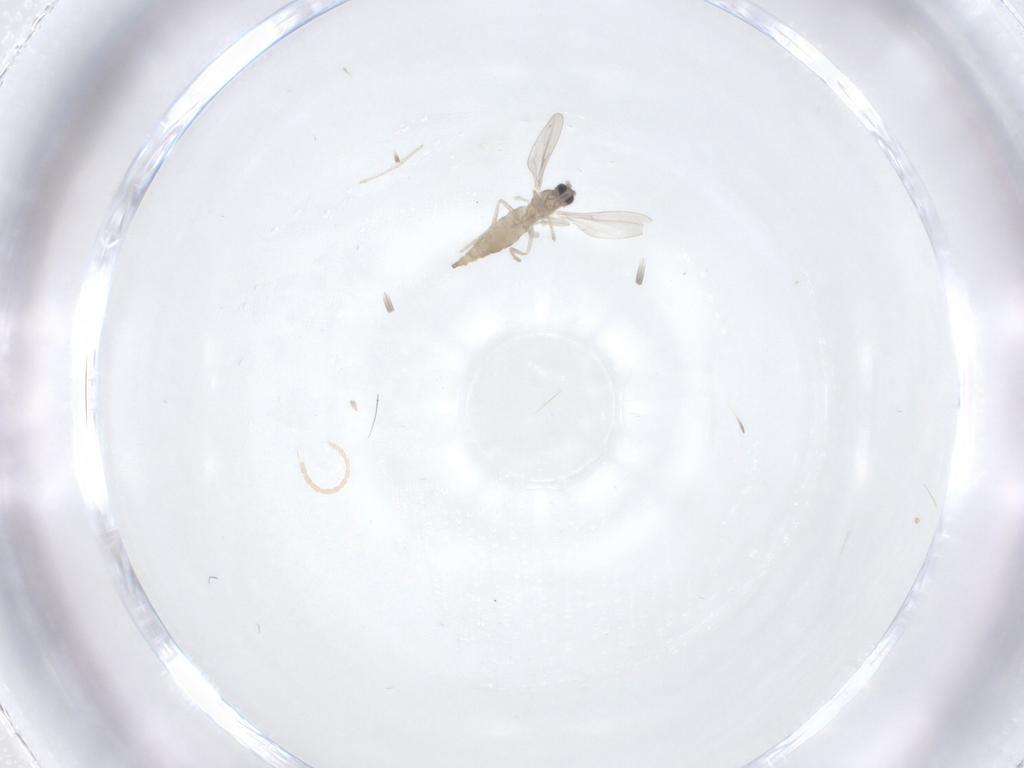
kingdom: Animalia
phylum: Arthropoda
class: Insecta
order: Diptera
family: Cecidomyiidae
